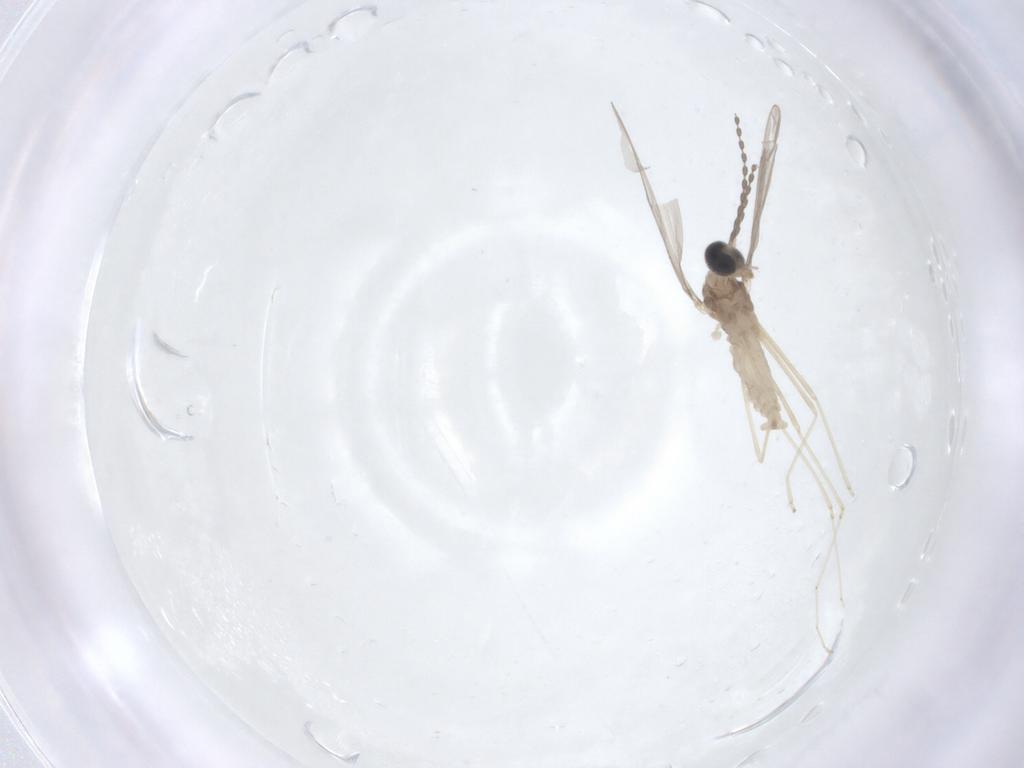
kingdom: Animalia
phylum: Arthropoda
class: Insecta
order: Diptera
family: Cecidomyiidae
